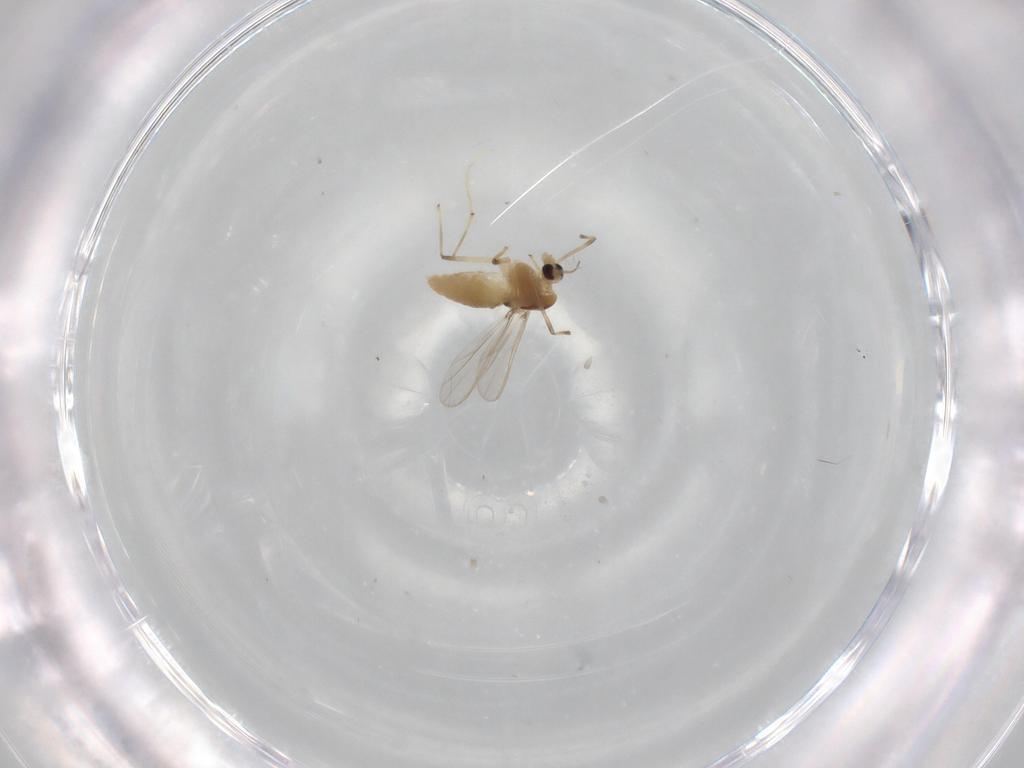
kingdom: Animalia
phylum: Arthropoda
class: Insecta
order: Diptera
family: Chironomidae
